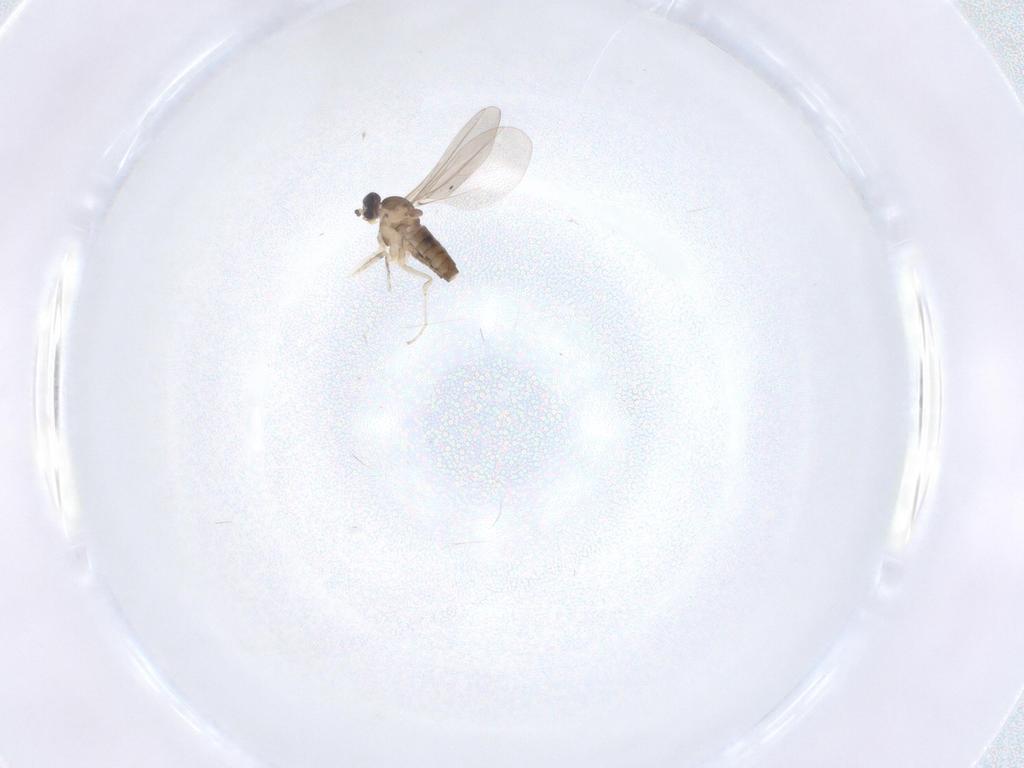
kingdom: Animalia
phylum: Arthropoda
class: Insecta
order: Diptera
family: Cecidomyiidae
